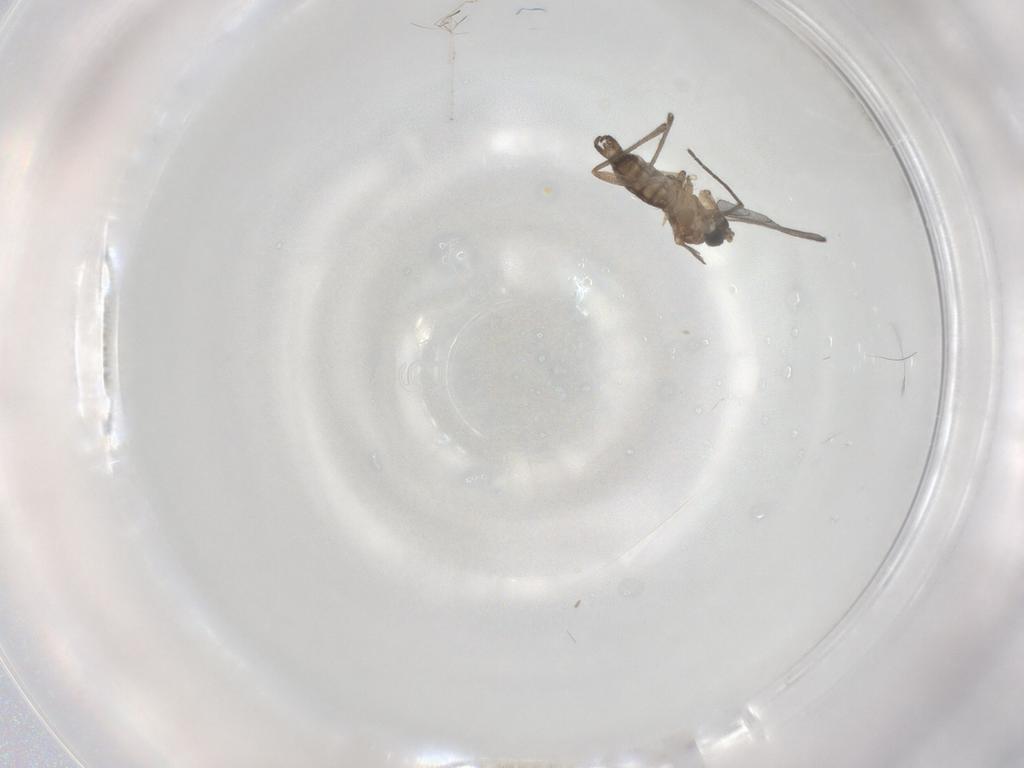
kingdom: Animalia
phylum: Arthropoda
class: Insecta
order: Diptera
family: Sciaridae
